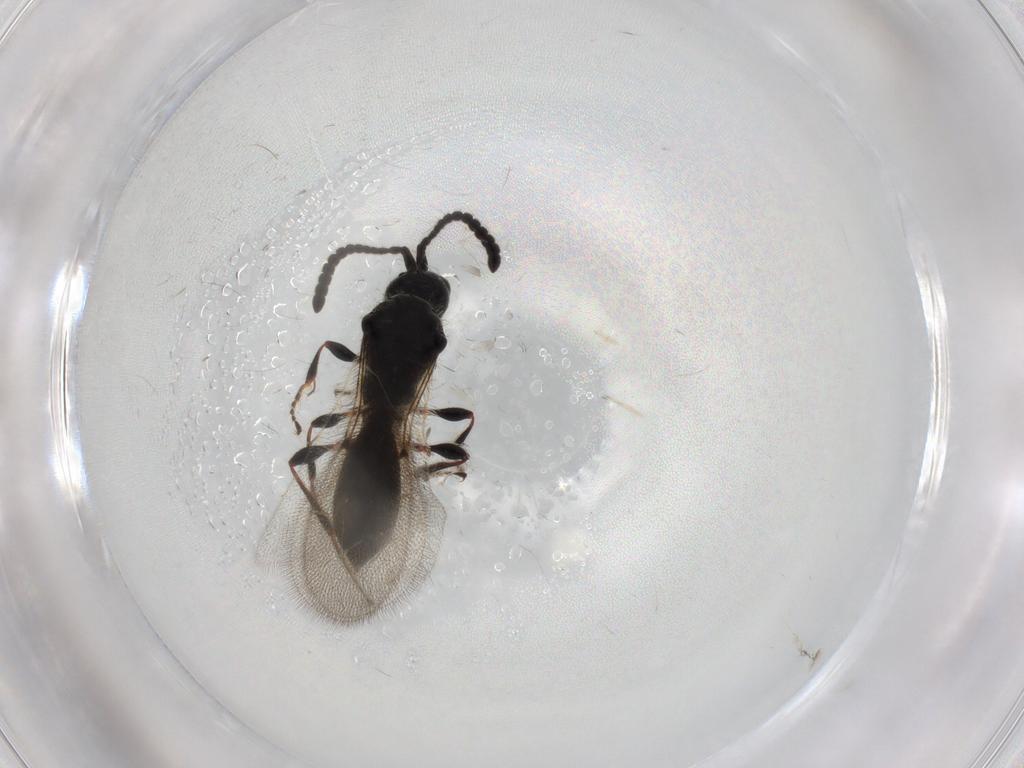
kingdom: Animalia
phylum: Arthropoda
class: Insecta
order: Hymenoptera
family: Diapriidae
